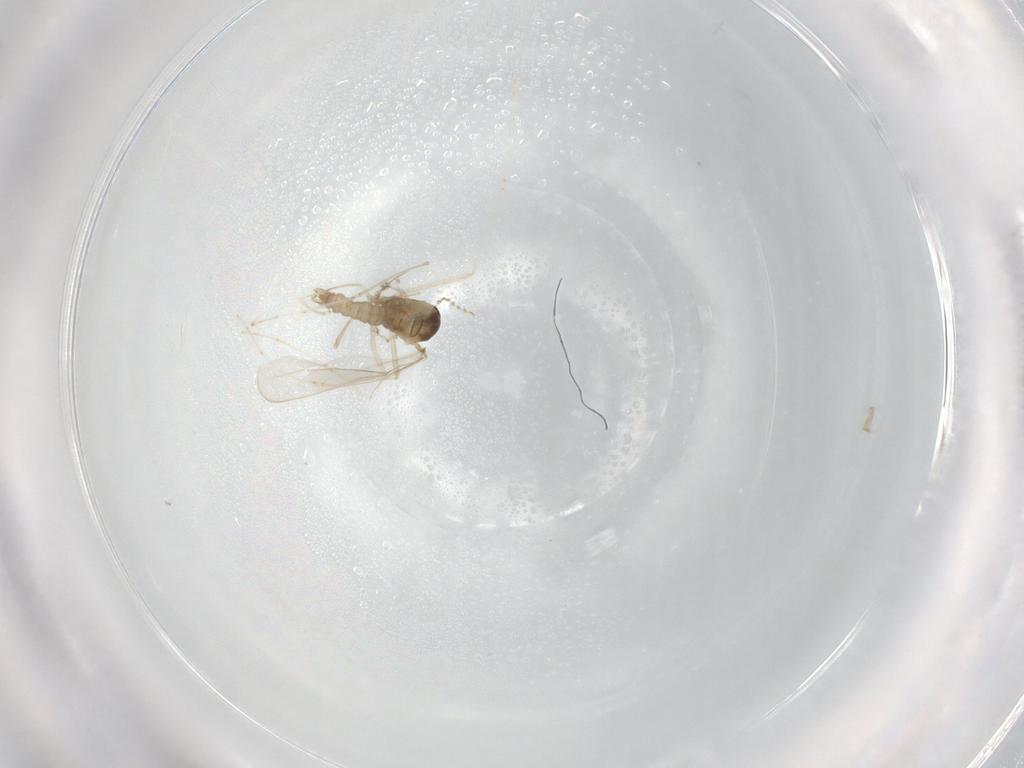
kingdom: Animalia
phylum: Arthropoda
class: Insecta
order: Diptera
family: Cecidomyiidae
